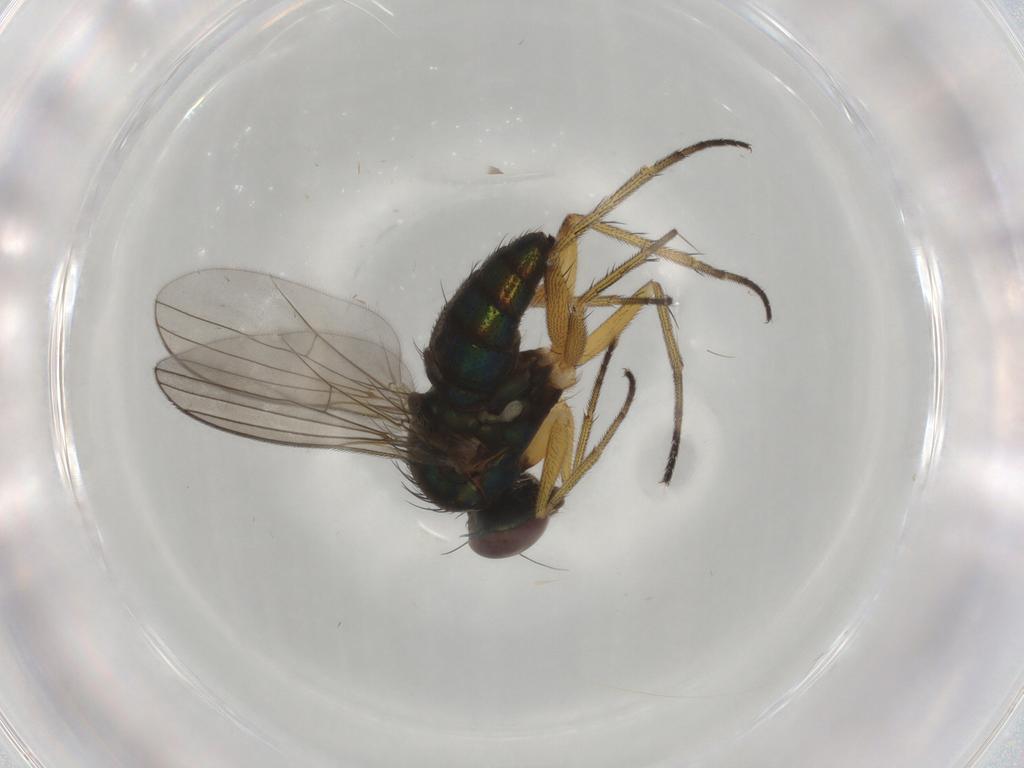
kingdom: Animalia
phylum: Arthropoda
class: Insecta
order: Diptera
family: Dolichopodidae
